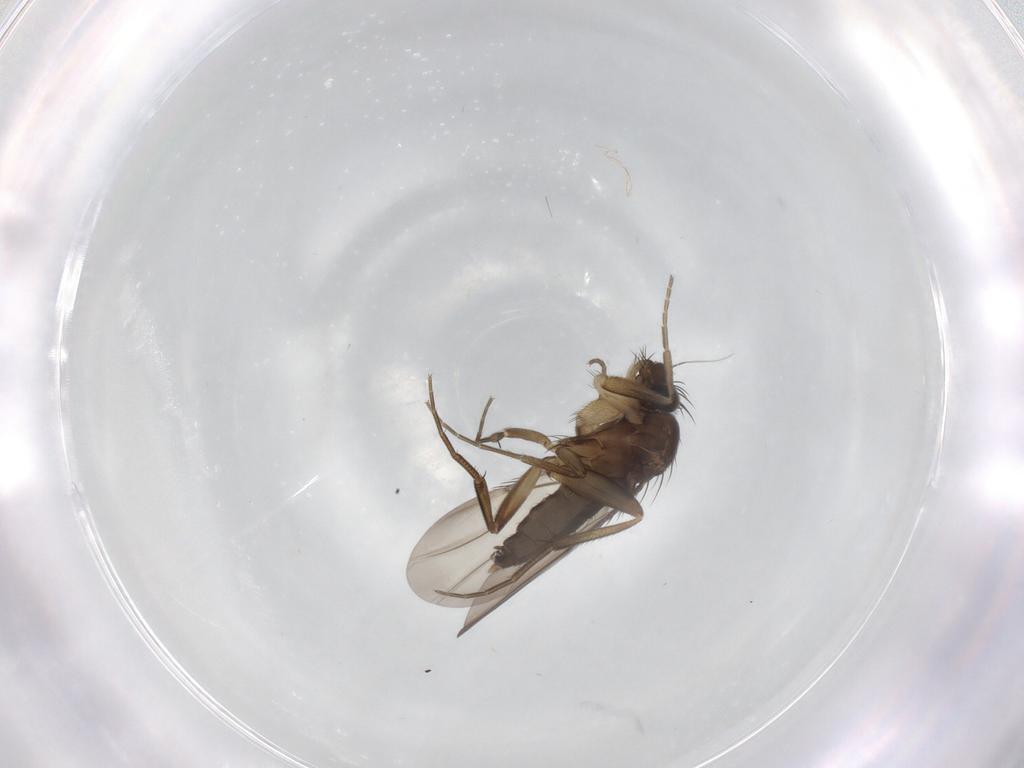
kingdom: Animalia
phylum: Arthropoda
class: Insecta
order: Diptera
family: Phoridae
